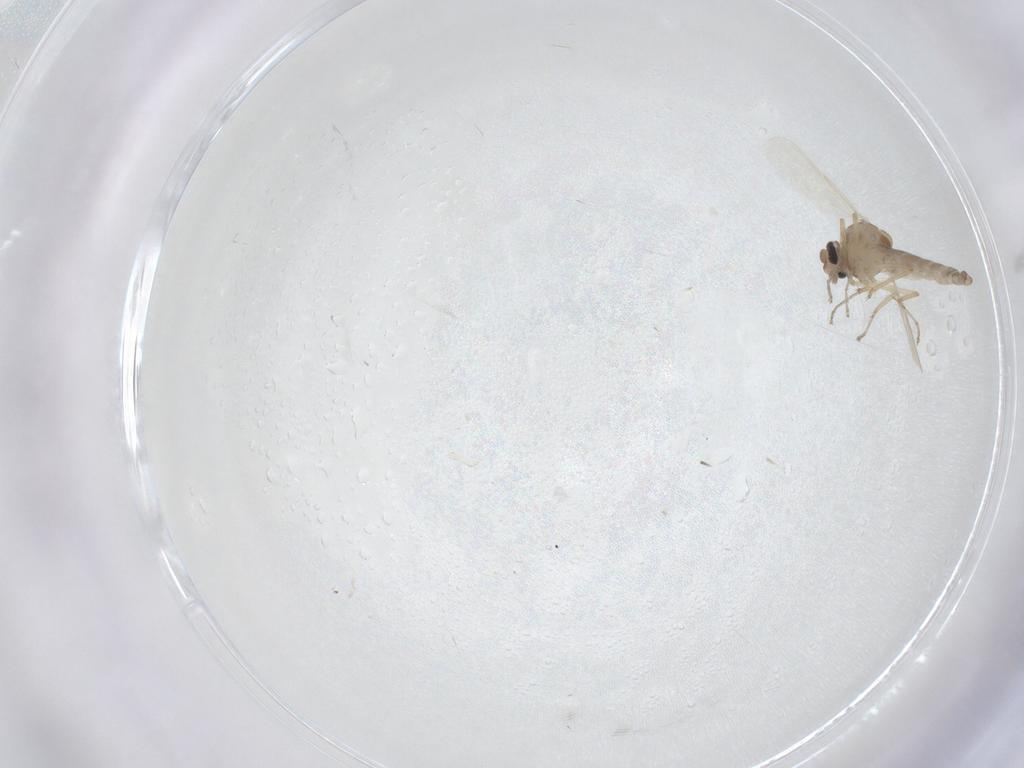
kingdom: Animalia
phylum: Arthropoda
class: Insecta
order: Diptera
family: Ceratopogonidae
